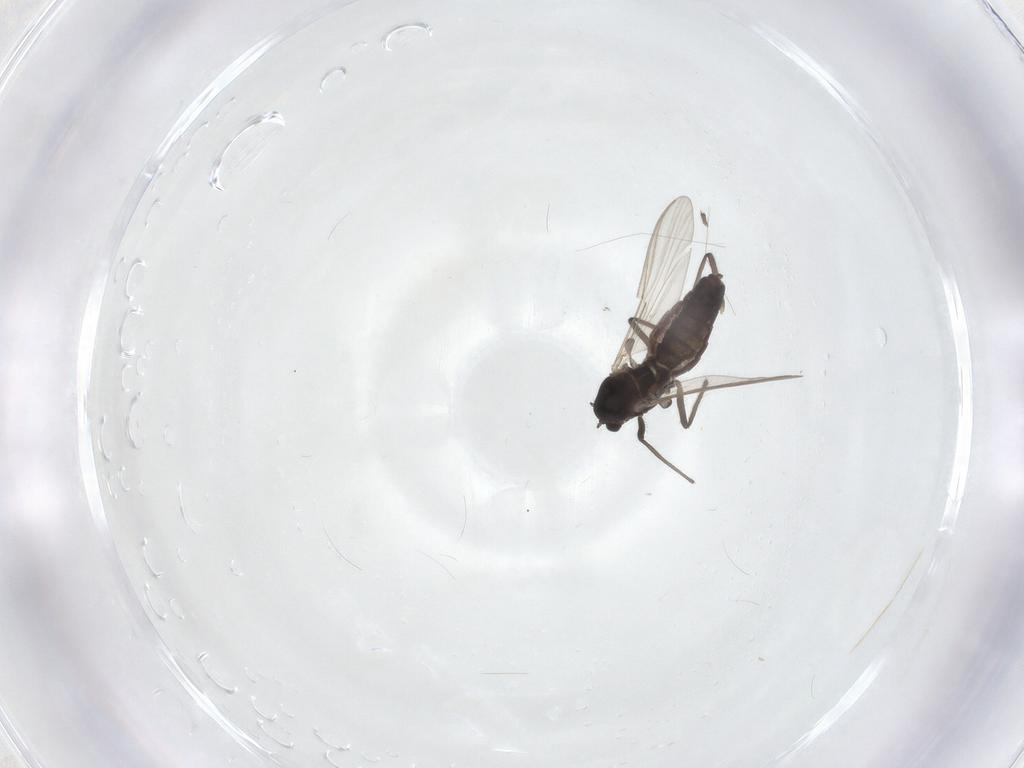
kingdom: Animalia
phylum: Arthropoda
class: Insecta
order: Diptera
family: Chironomidae
